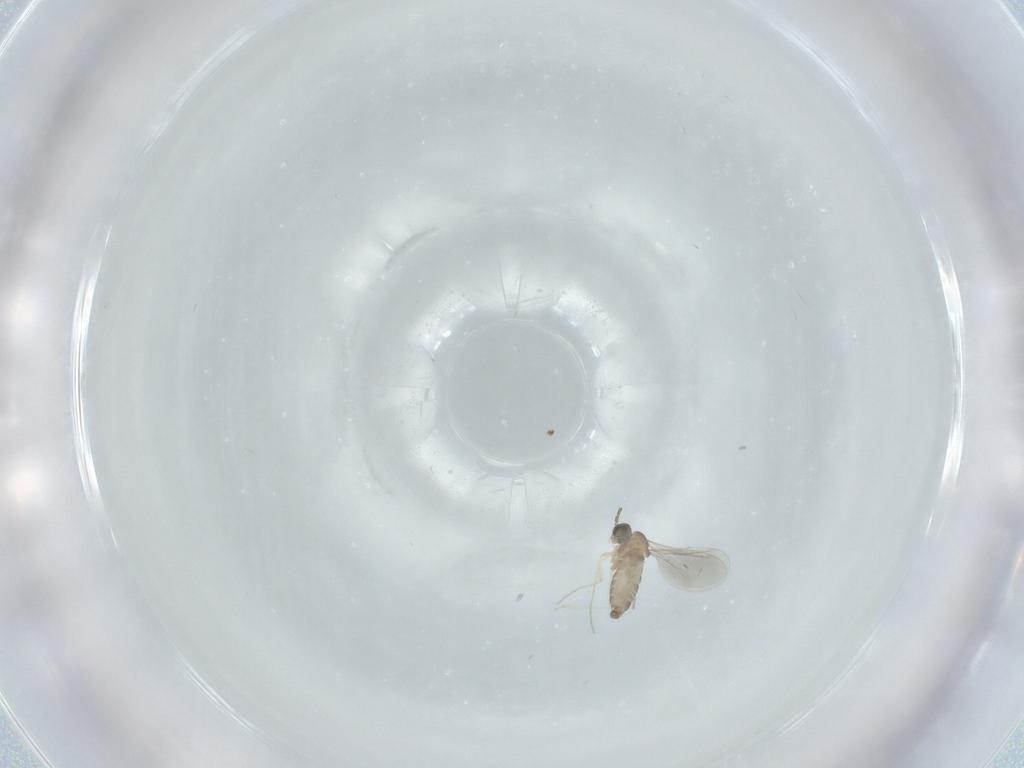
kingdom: Animalia
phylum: Arthropoda
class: Insecta
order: Diptera
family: Cecidomyiidae
